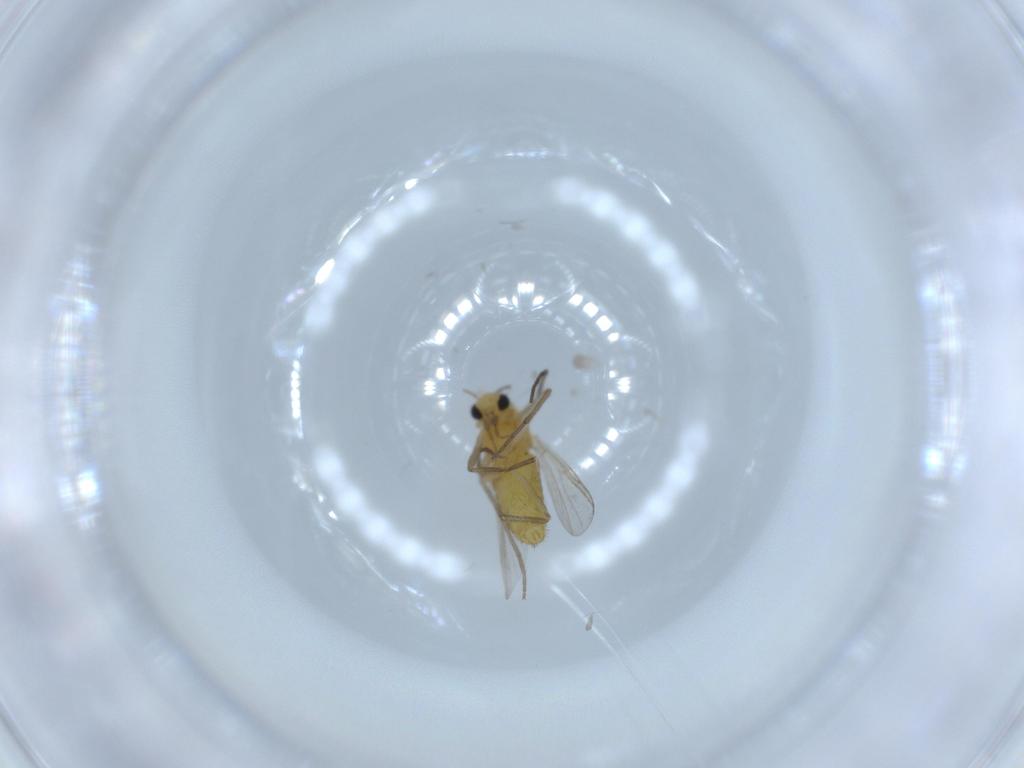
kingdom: Animalia
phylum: Arthropoda
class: Insecta
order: Diptera
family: Chironomidae
